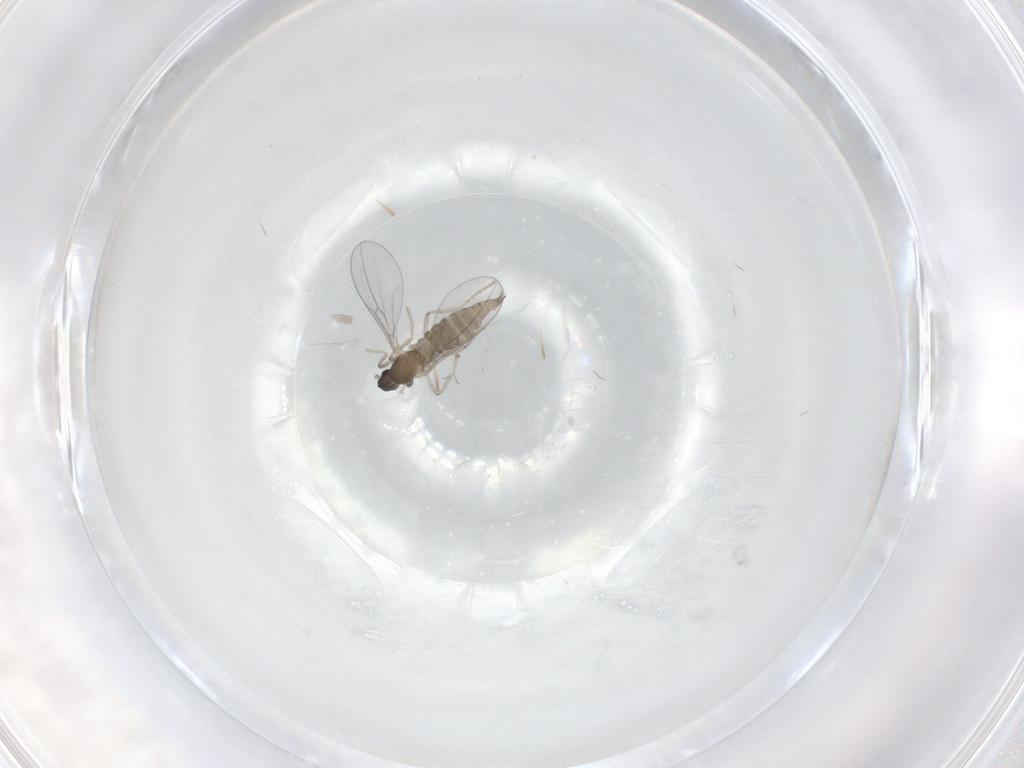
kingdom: Animalia
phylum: Arthropoda
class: Insecta
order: Diptera
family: Cecidomyiidae
